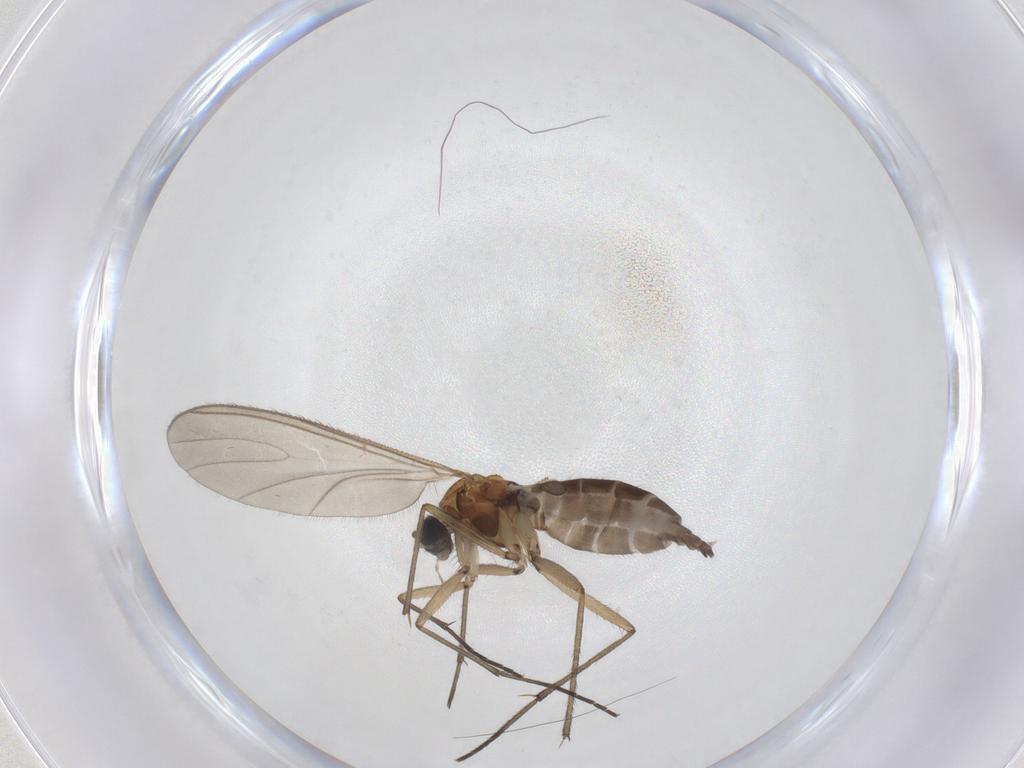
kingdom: Animalia
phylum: Arthropoda
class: Insecta
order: Diptera
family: Sciaridae
